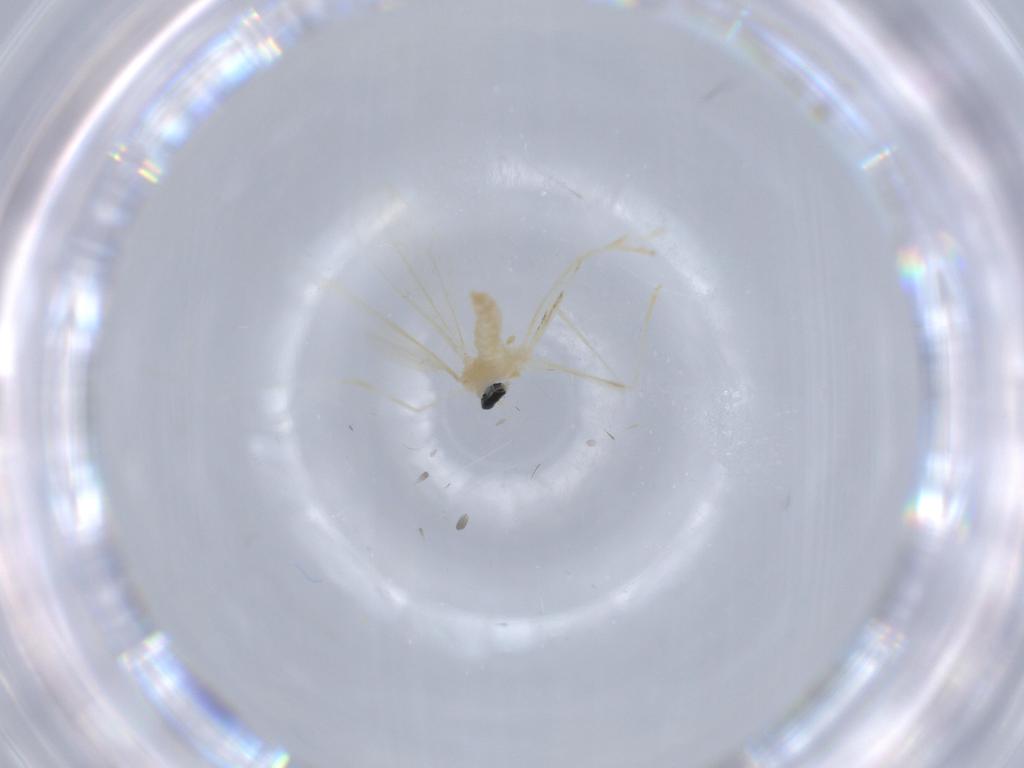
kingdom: Animalia
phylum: Arthropoda
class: Insecta
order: Diptera
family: Cecidomyiidae
